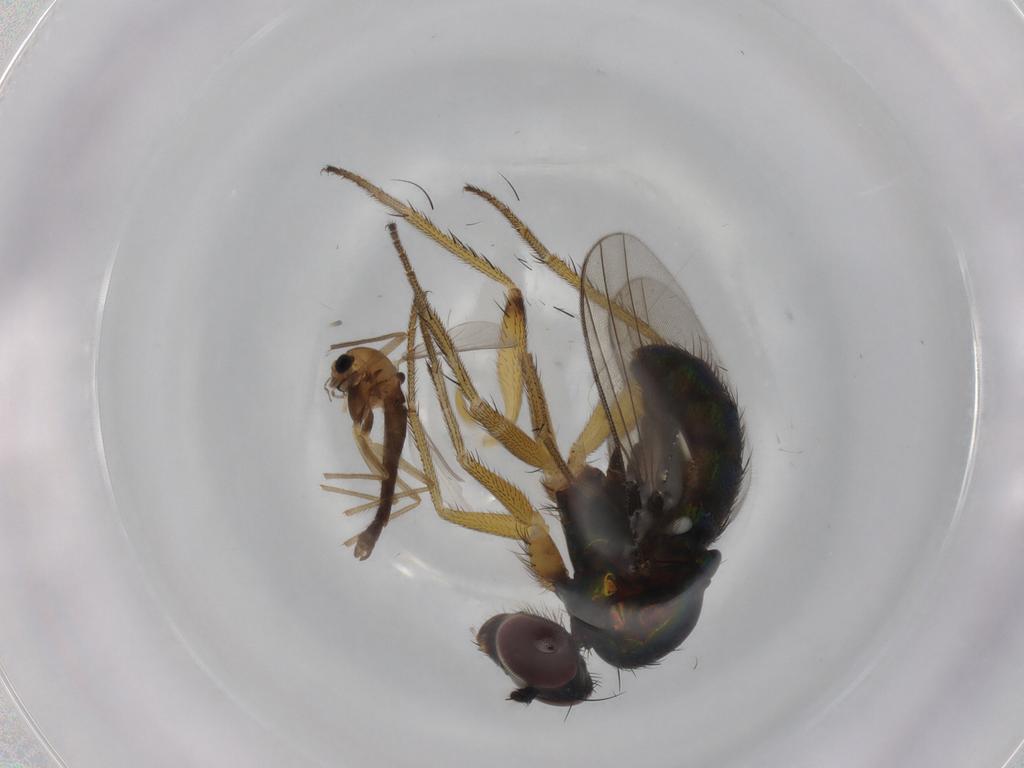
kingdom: Animalia
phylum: Arthropoda
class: Insecta
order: Diptera
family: Dolichopodidae
